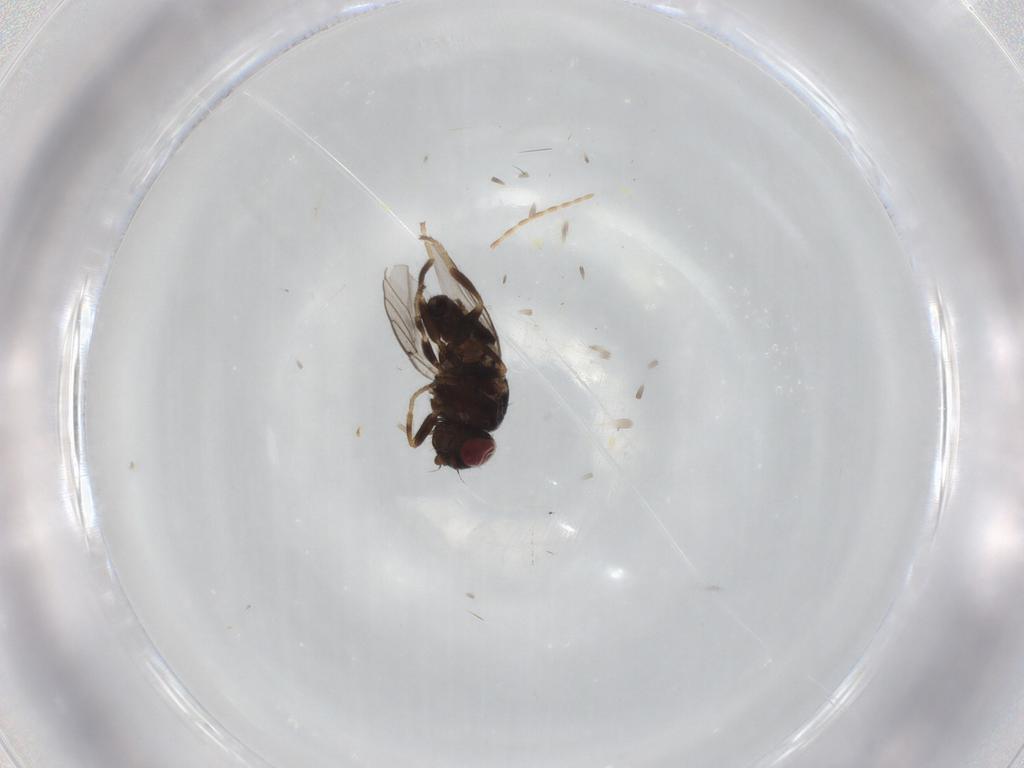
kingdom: Animalia
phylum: Arthropoda
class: Insecta
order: Diptera
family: Chloropidae
